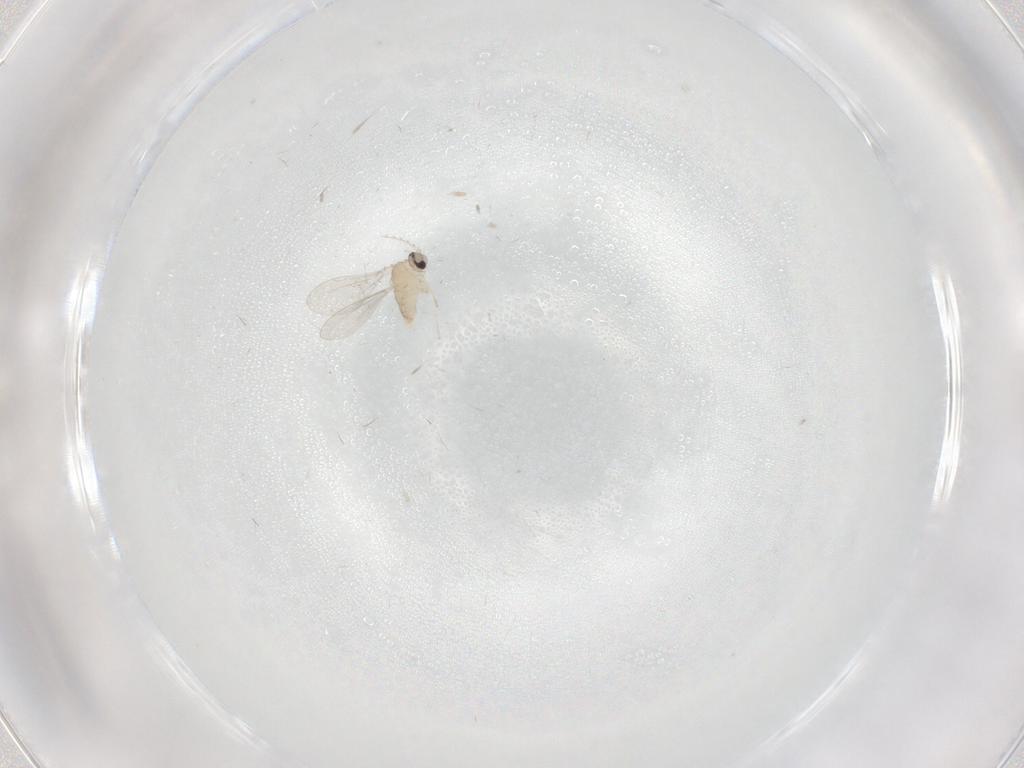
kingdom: Animalia
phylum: Arthropoda
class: Insecta
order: Diptera
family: Cecidomyiidae
